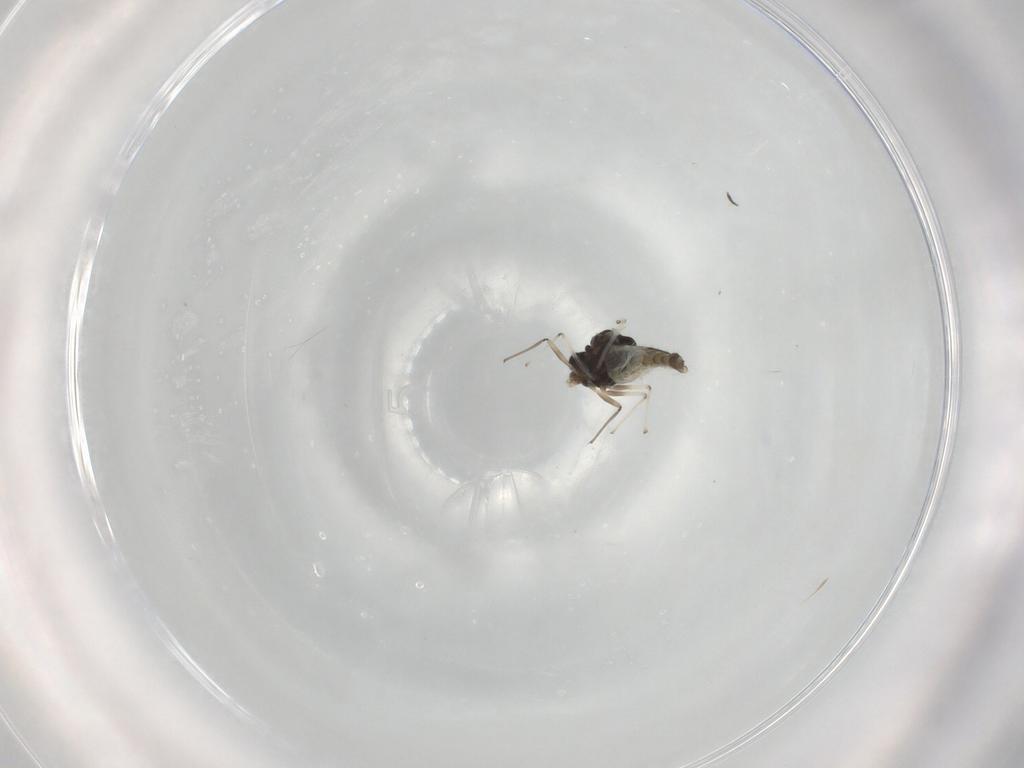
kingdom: Animalia
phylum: Arthropoda
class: Insecta
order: Diptera
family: Chironomidae
